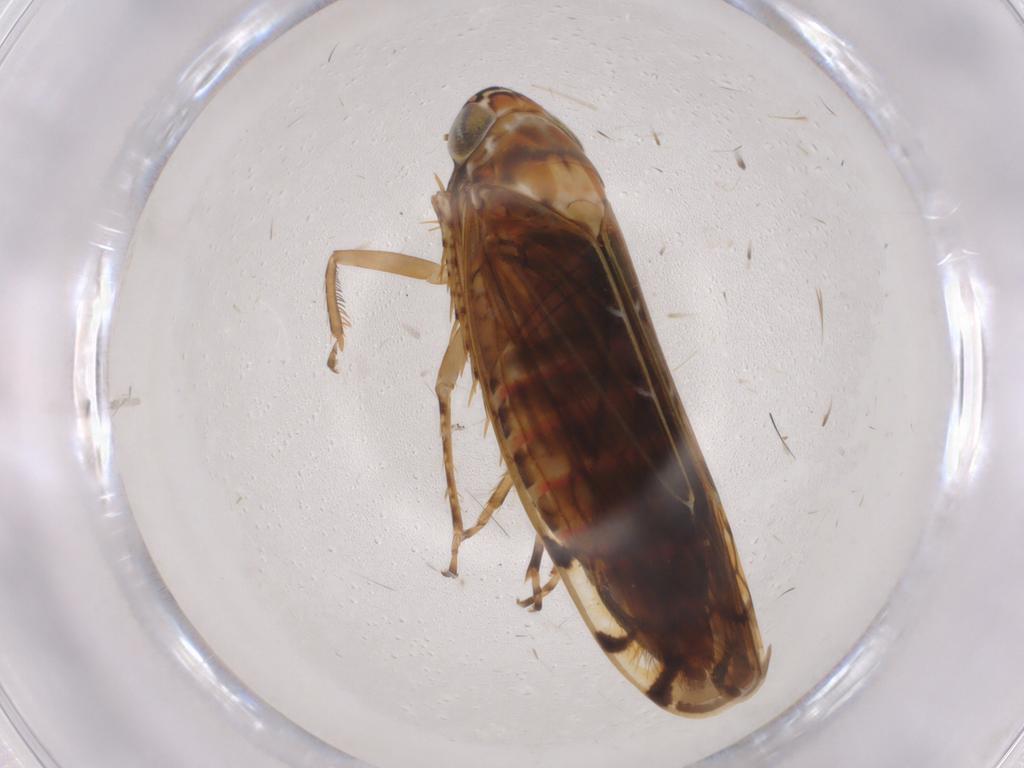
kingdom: Animalia
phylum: Arthropoda
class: Insecta
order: Hemiptera
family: Cicadellidae
